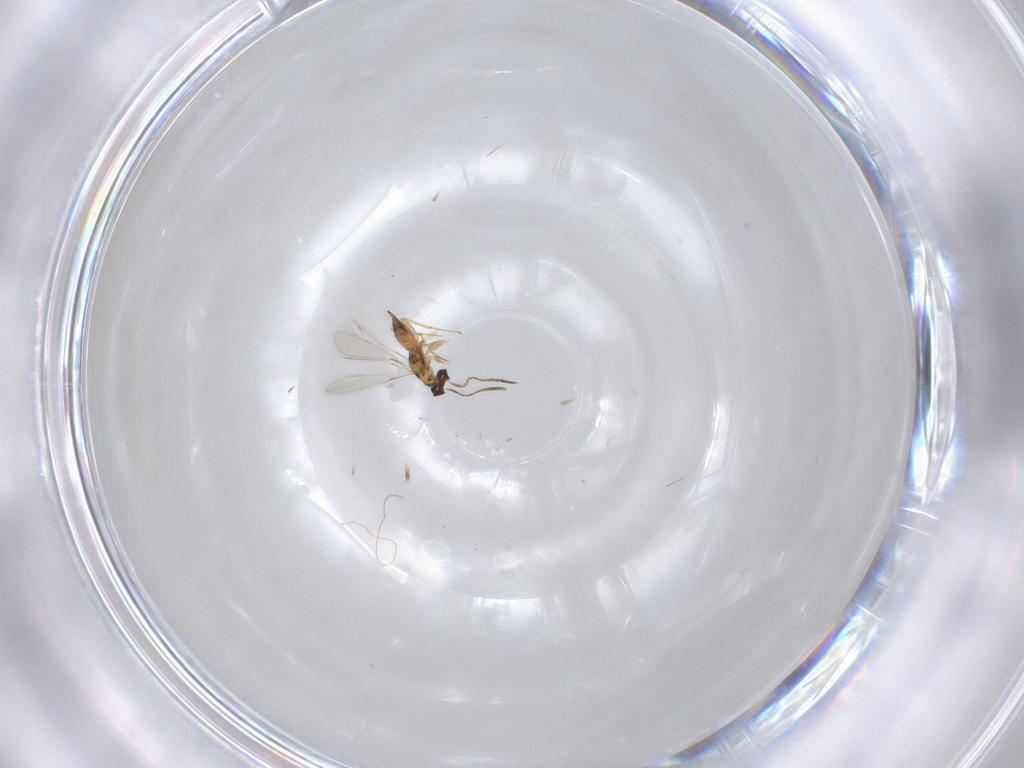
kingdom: Animalia
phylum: Arthropoda
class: Insecta
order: Hymenoptera
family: Mymaridae
